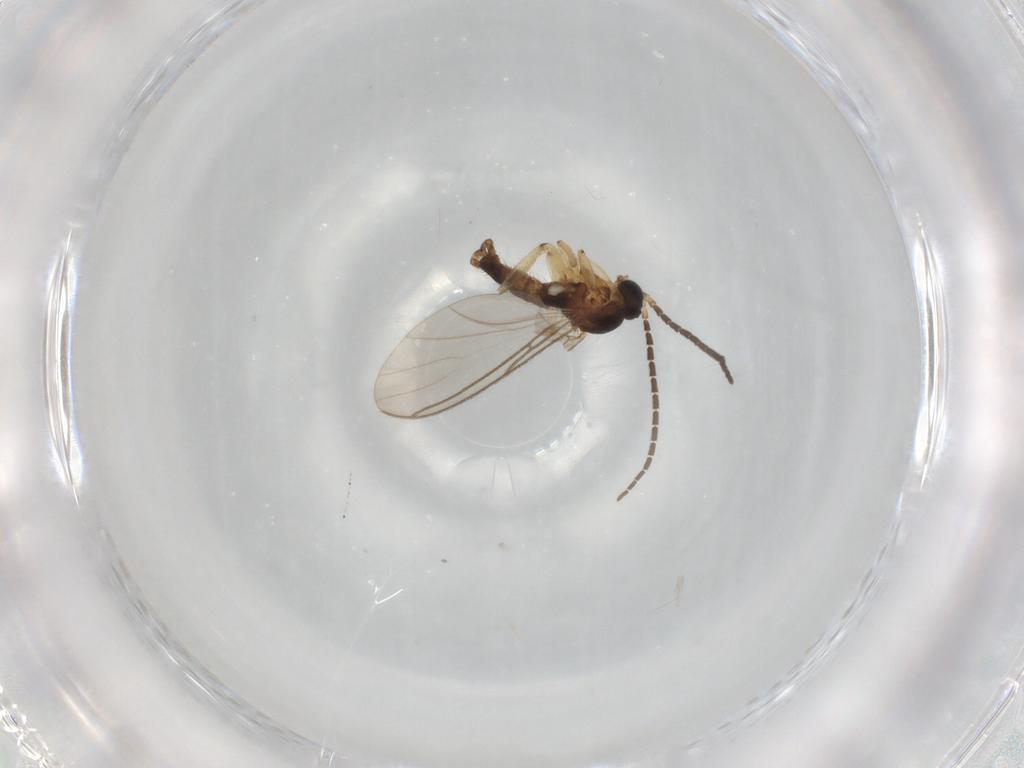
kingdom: Animalia
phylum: Arthropoda
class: Insecta
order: Diptera
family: Sciaridae
